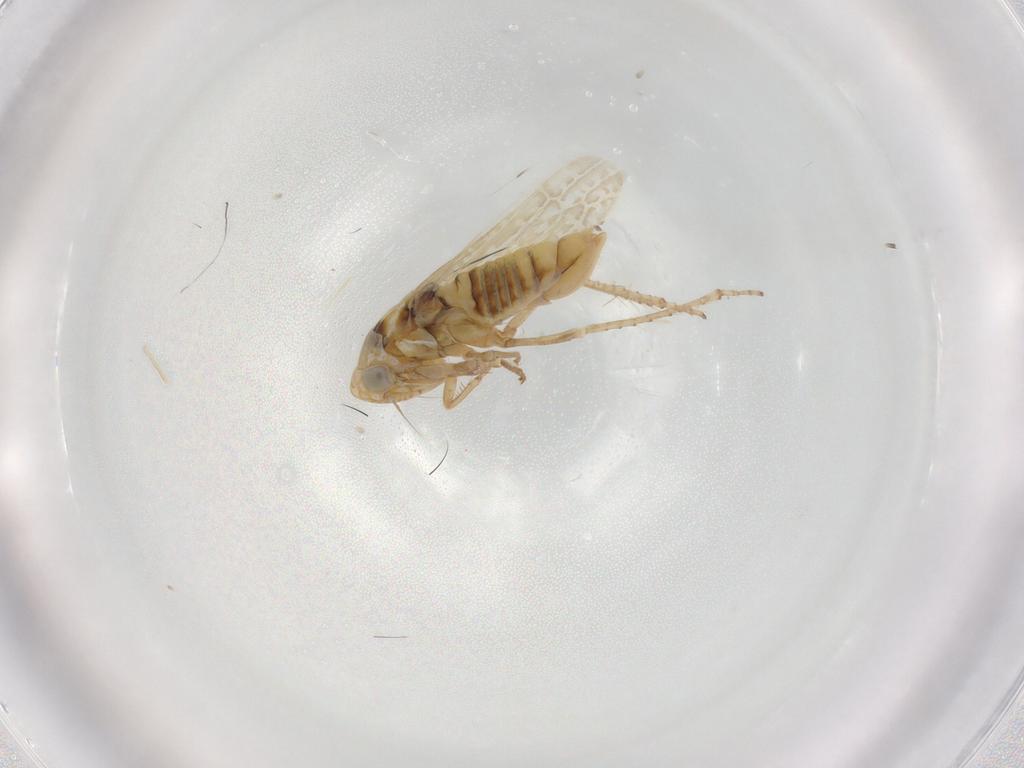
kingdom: Animalia
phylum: Arthropoda
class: Insecta
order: Hemiptera
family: Cicadellidae
